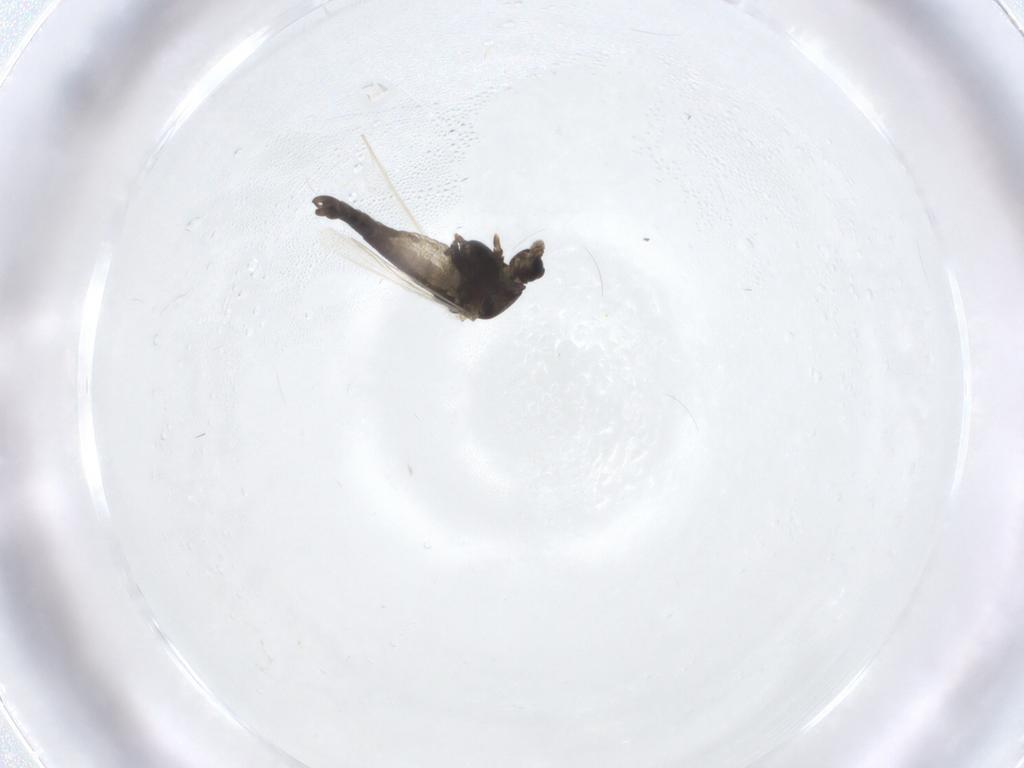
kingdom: Animalia
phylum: Arthropoda
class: Insecta
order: Diptera
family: Chironomidae
